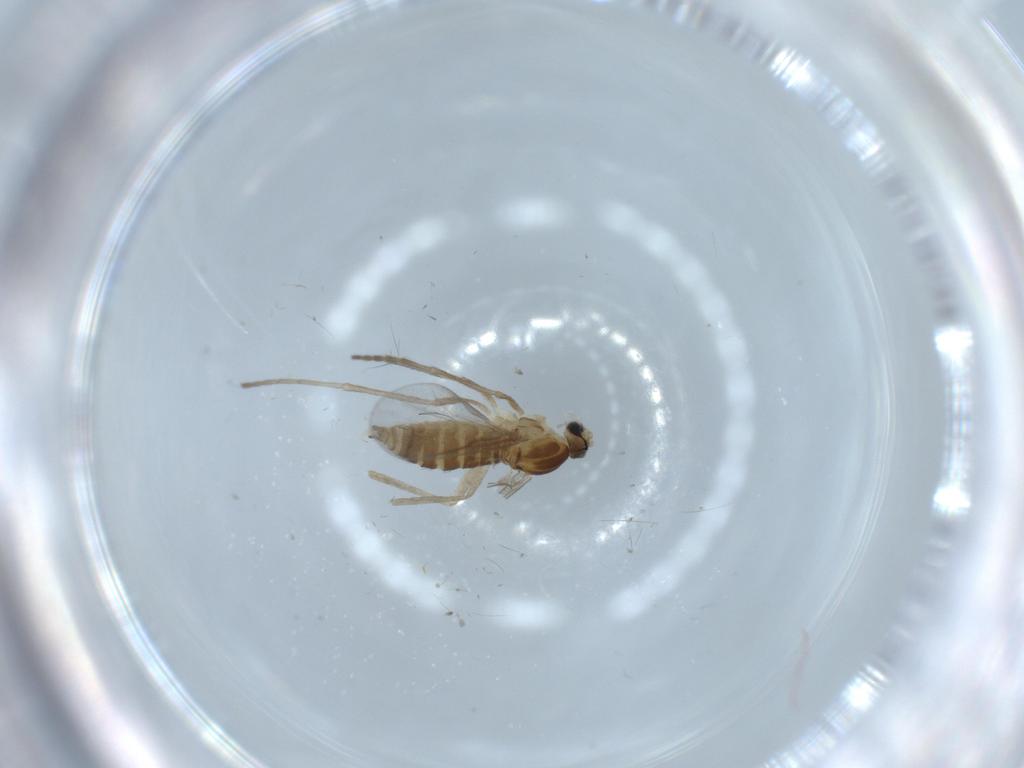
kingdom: Animalia
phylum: Arthropoda
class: Insecta
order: Diptera
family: Cecidomyiidae
